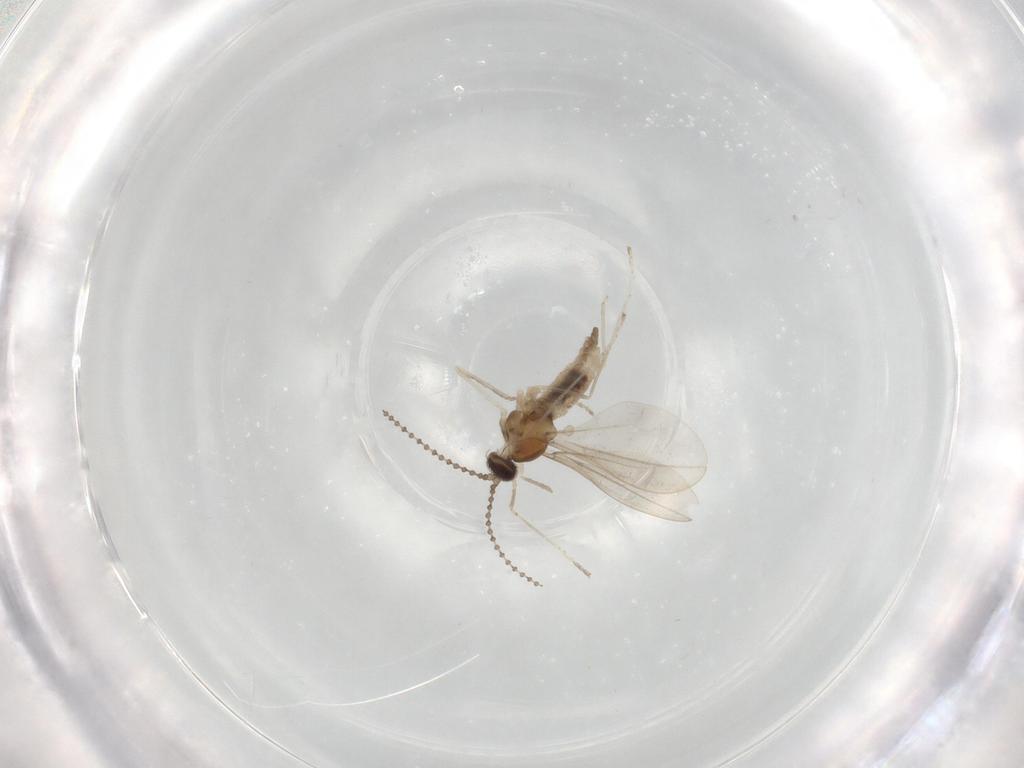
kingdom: Animalia
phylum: Arthropoda
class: Insecta
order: Diptera
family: Cecidomyiidae
